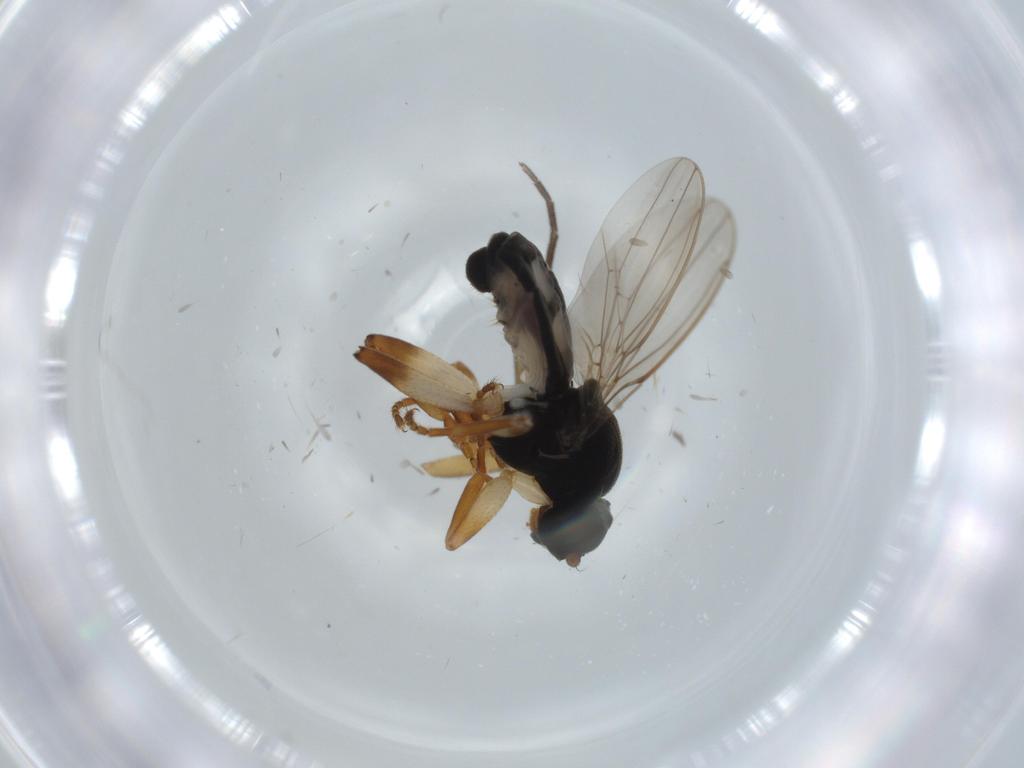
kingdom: Animalia
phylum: Arthropoda
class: Insecta
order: Diptera
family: Sphaeroceridae
